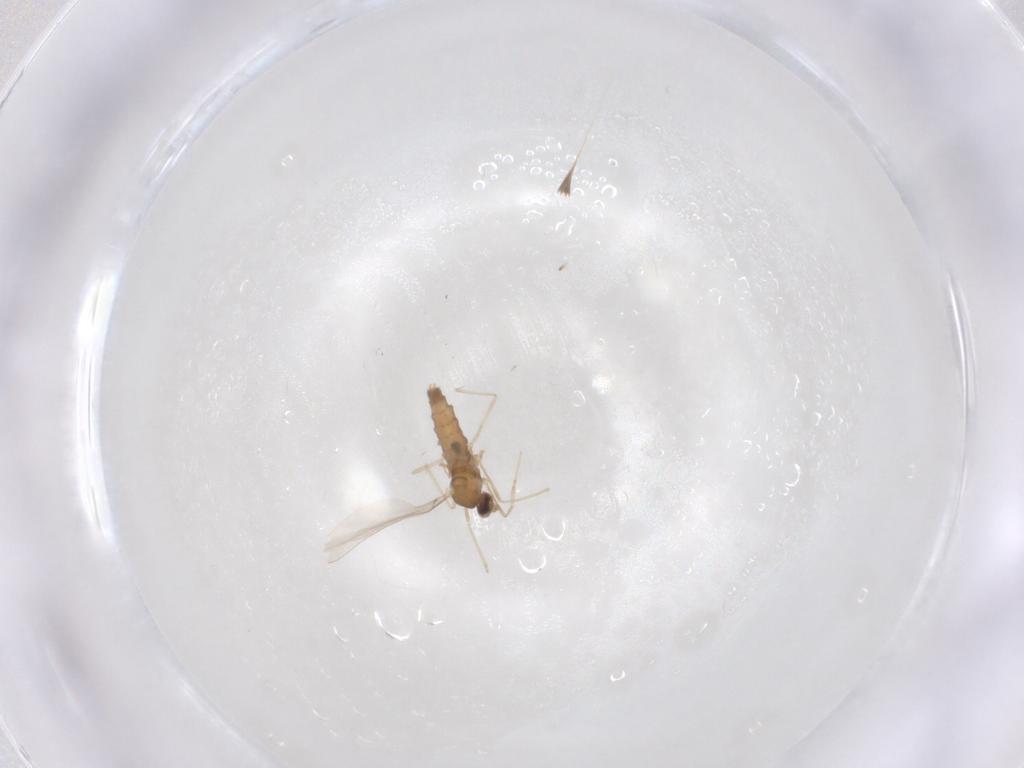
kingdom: Animalia
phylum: Arthropoda
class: Insecta
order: Diptera
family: Cecidomyiidae
